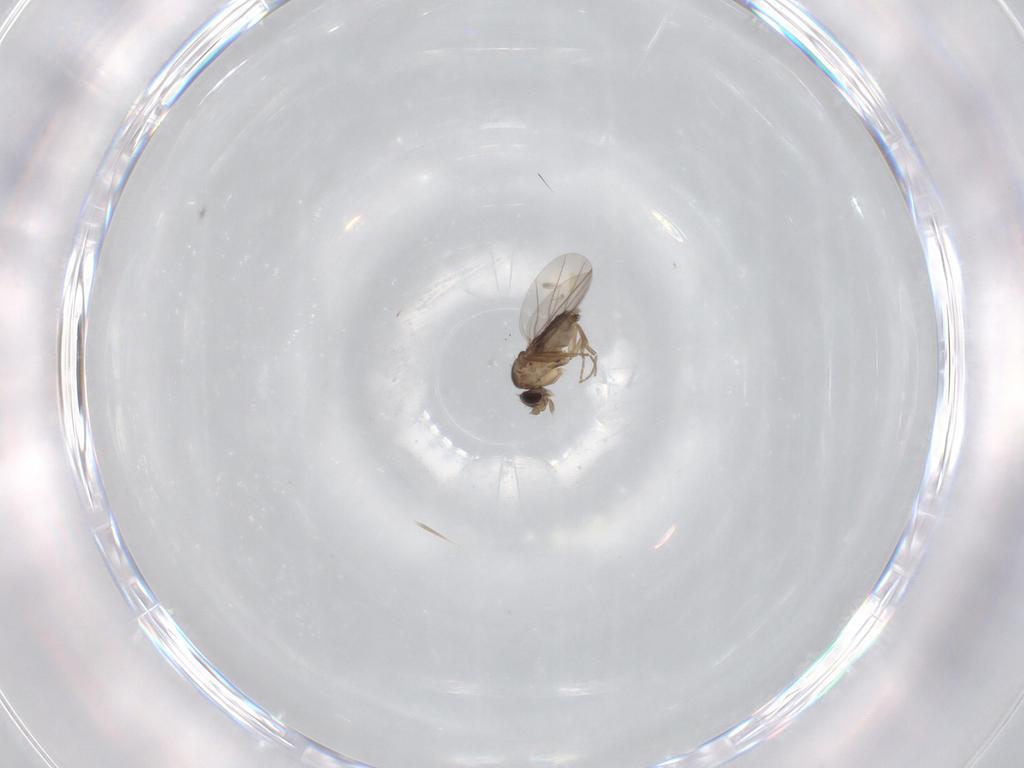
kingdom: Animalia
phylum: Arthropoda
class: Insecta
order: Diptera
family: Phoridae
